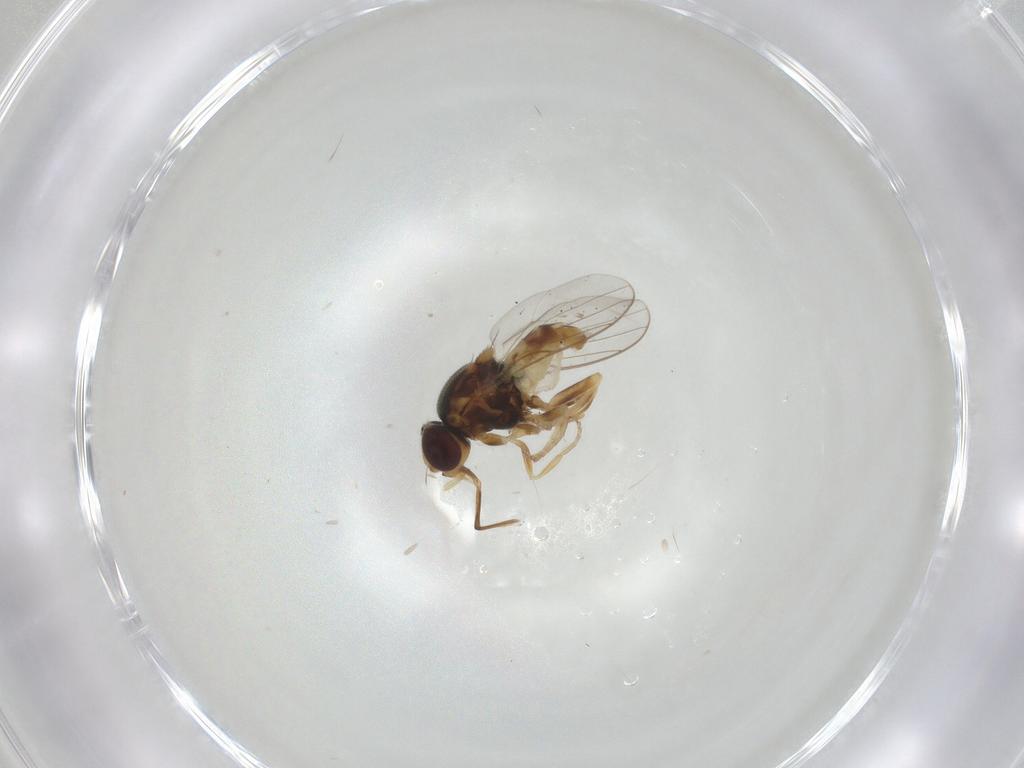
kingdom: Animalia
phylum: Arthropoda
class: Insecta
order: Diptera
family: Chloropidae
